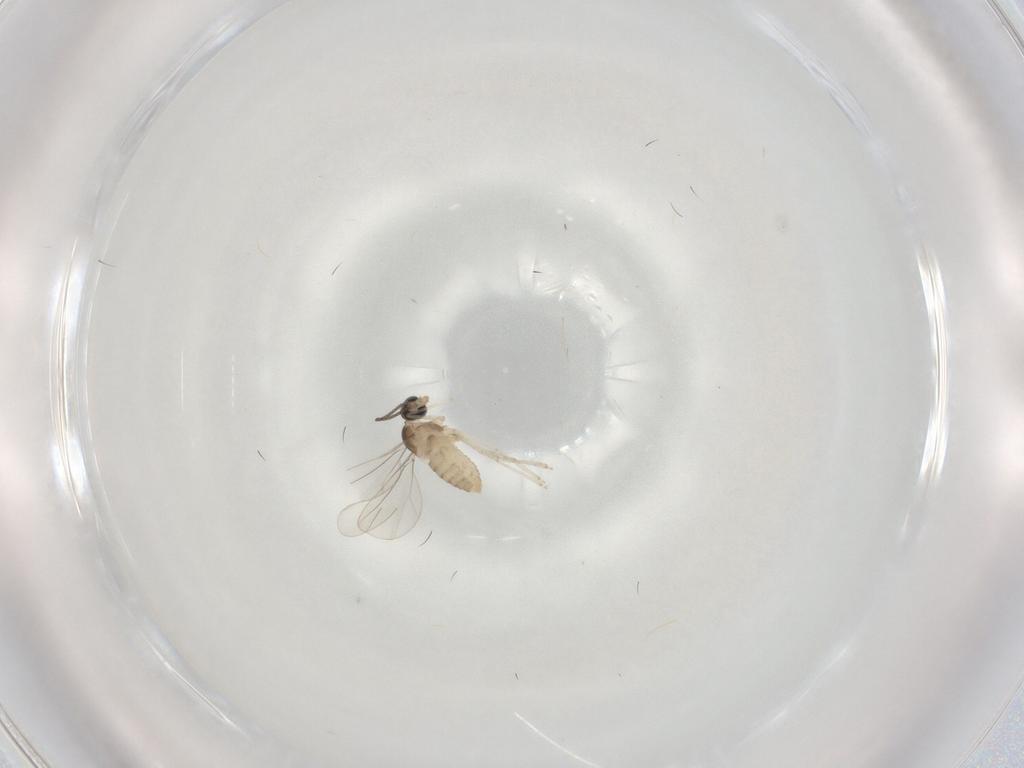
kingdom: Animalia
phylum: Arthropoda
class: Insecta
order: Diptera
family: Cecidomyiidae
